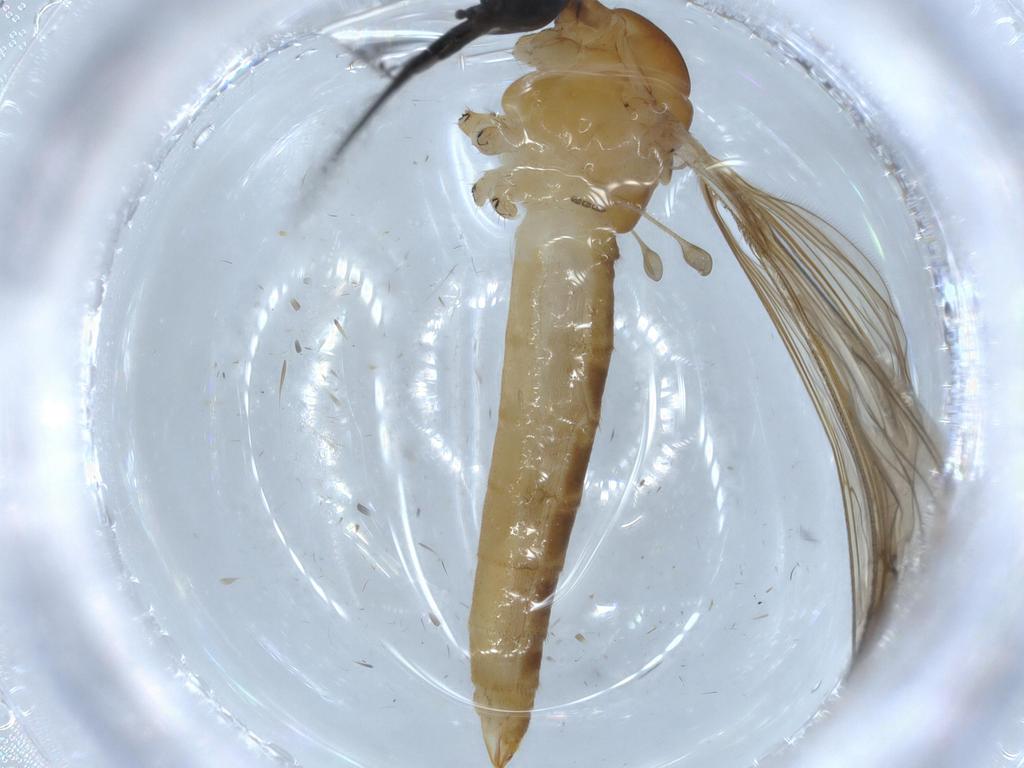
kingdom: Animalia
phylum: Arthropoda
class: Insecta
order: Diptera
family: Cecidomyiidae
